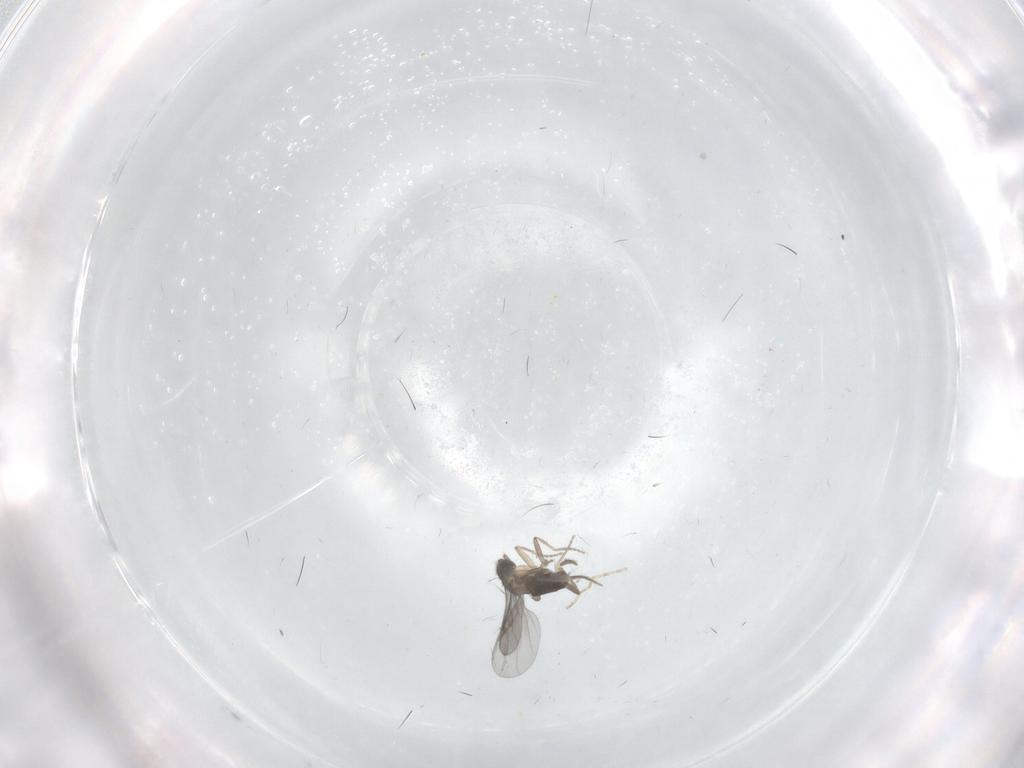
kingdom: Animalia
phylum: Arthropoda
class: Insecta
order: Diptera
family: Cecidomyiidae
